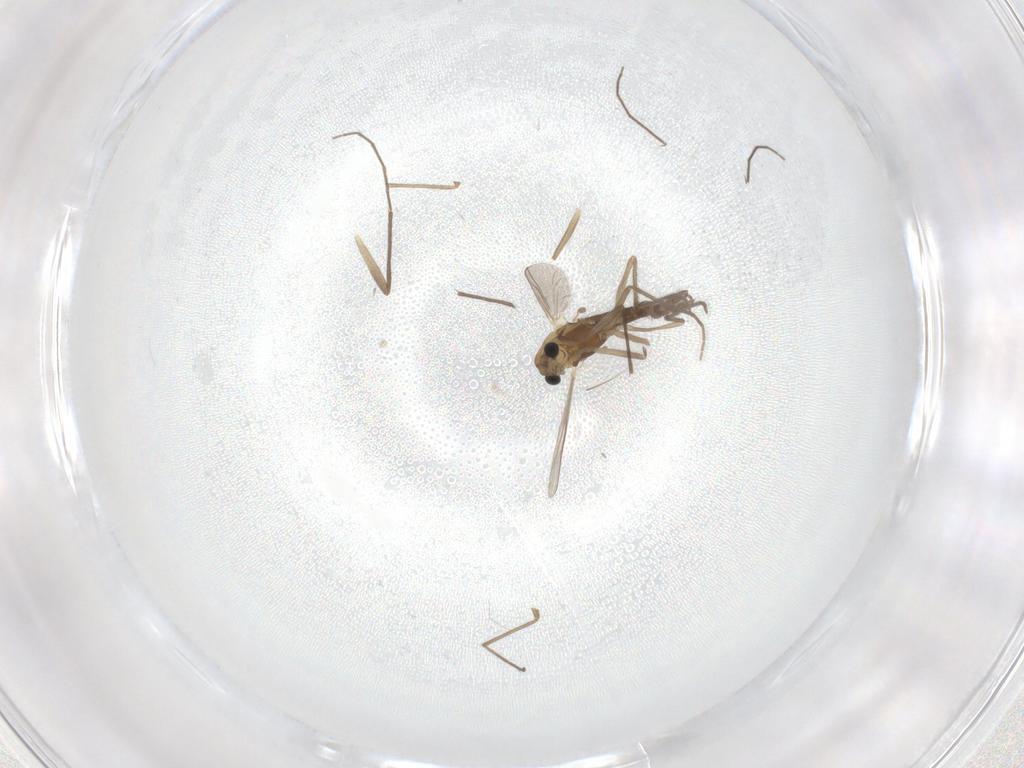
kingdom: Animalia
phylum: Arthropoda
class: Insecta
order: Diptera
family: Chironomidae
